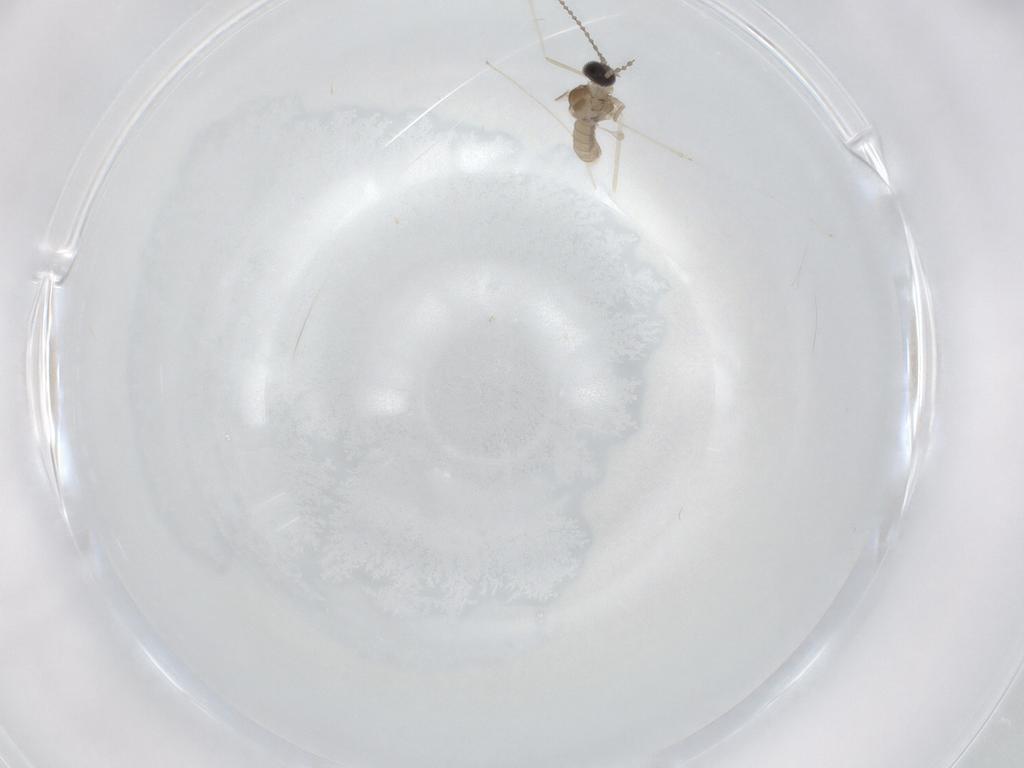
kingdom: Animalia
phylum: Arthropoda
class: Insecta
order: Diptera
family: Cecidomyiidae
